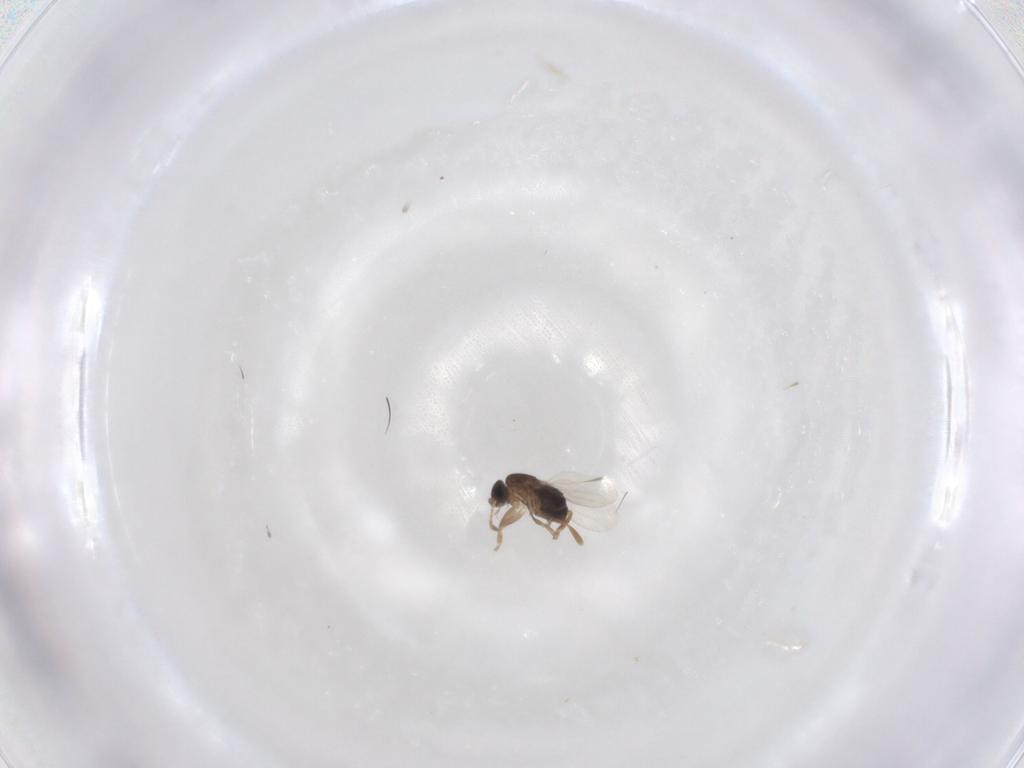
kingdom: Animalia
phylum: Arthropoda
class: Insecta
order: Diptera
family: Phoridae
